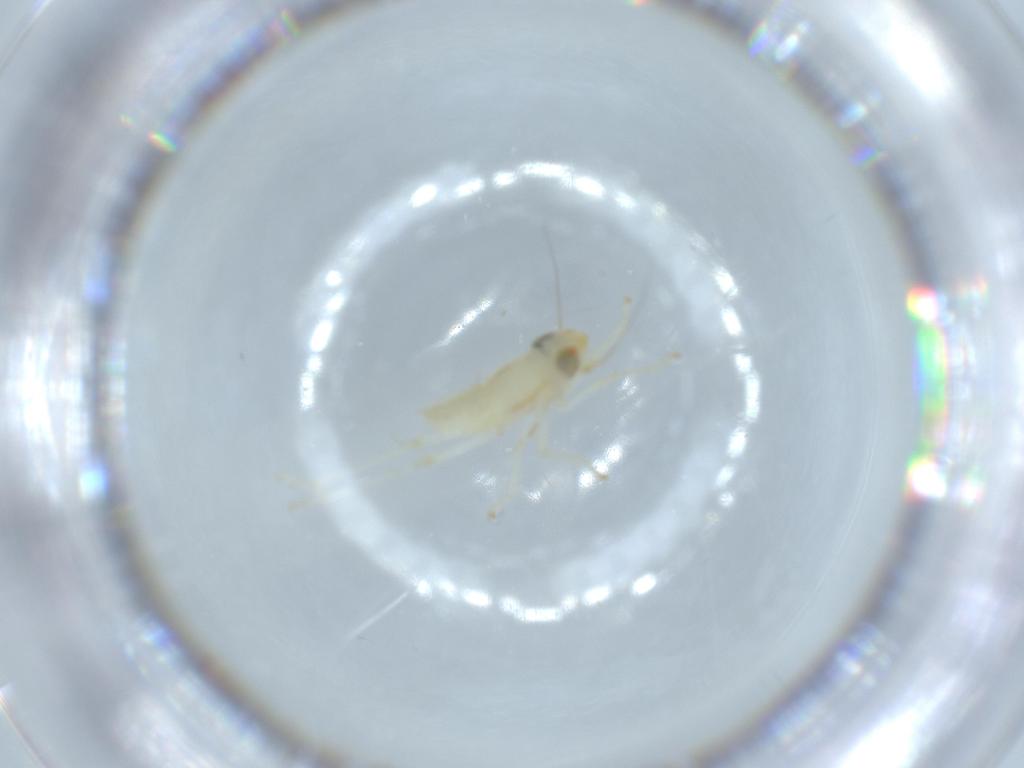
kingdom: Animalia
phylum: Arthropoda
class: Insecta
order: Hemiptera
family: Cicadellidae
